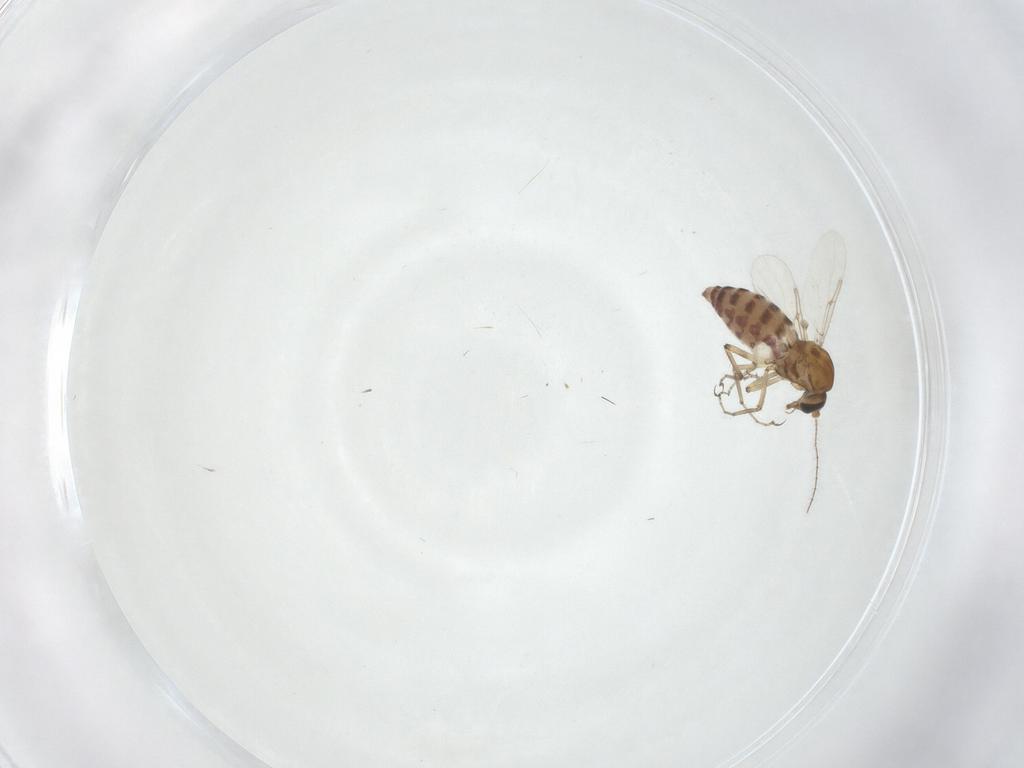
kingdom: Animalia
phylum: Arthropoda
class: Insecta
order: Diptera
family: Ceratopogonidae
